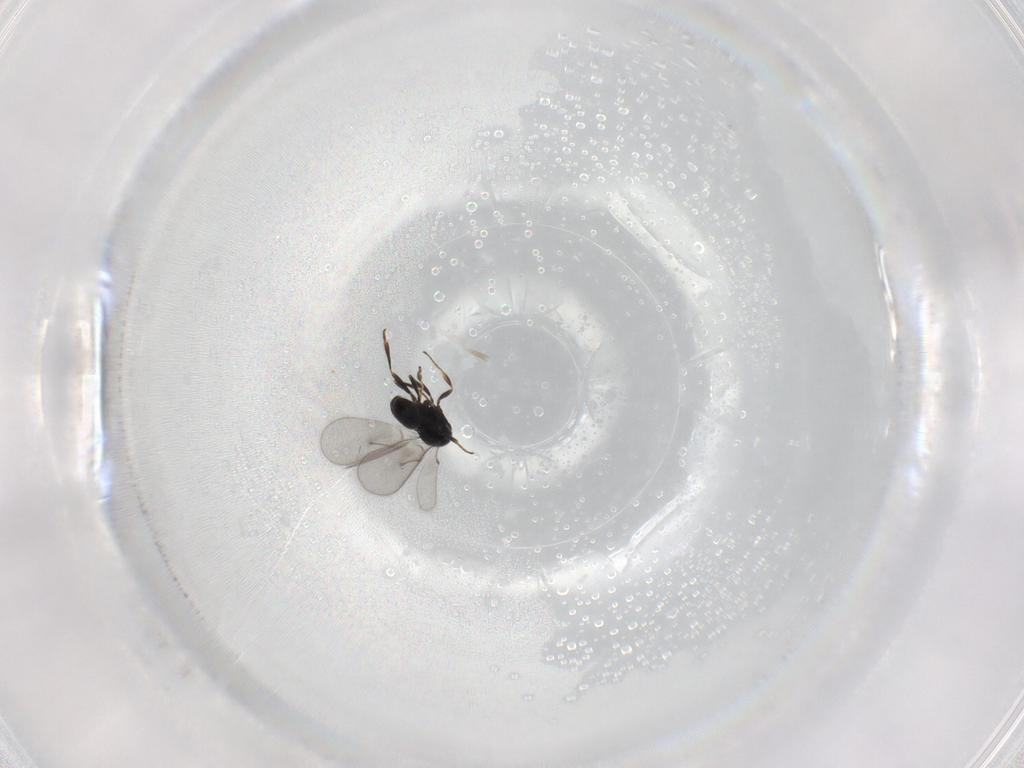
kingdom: Animalia
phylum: Arthropoda
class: Insecta
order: Hymenoptera
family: Scelionidae
